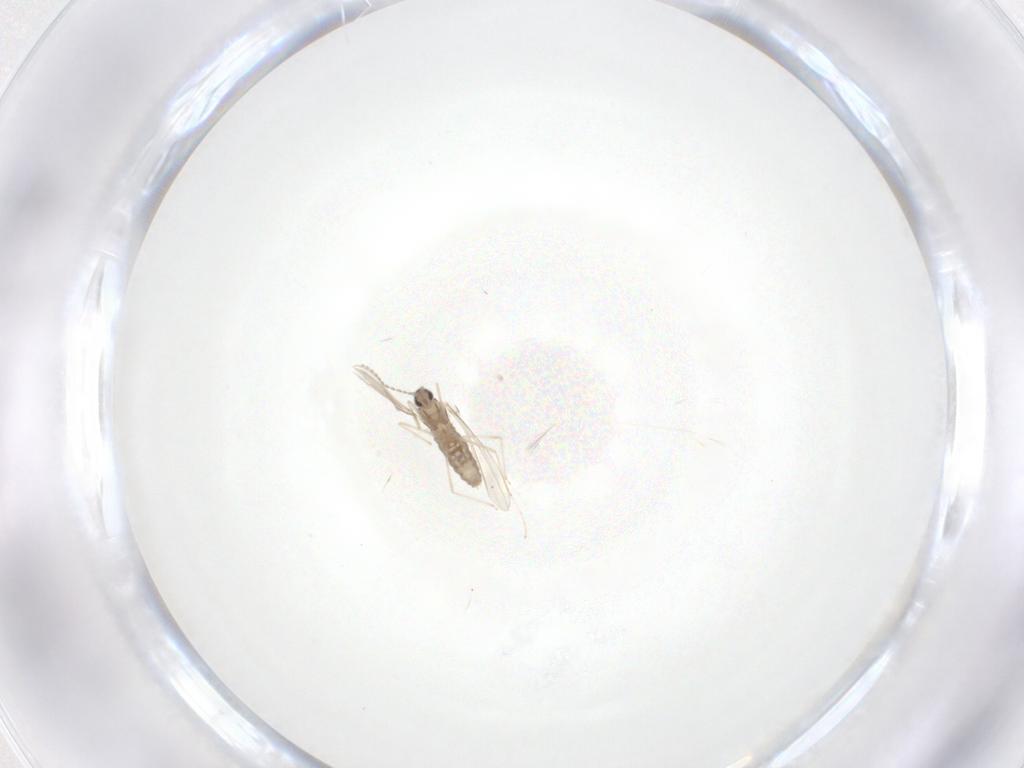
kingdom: Animalia
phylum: Arthropoda
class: Insecta
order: Diptera
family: Cecidomyiidae
